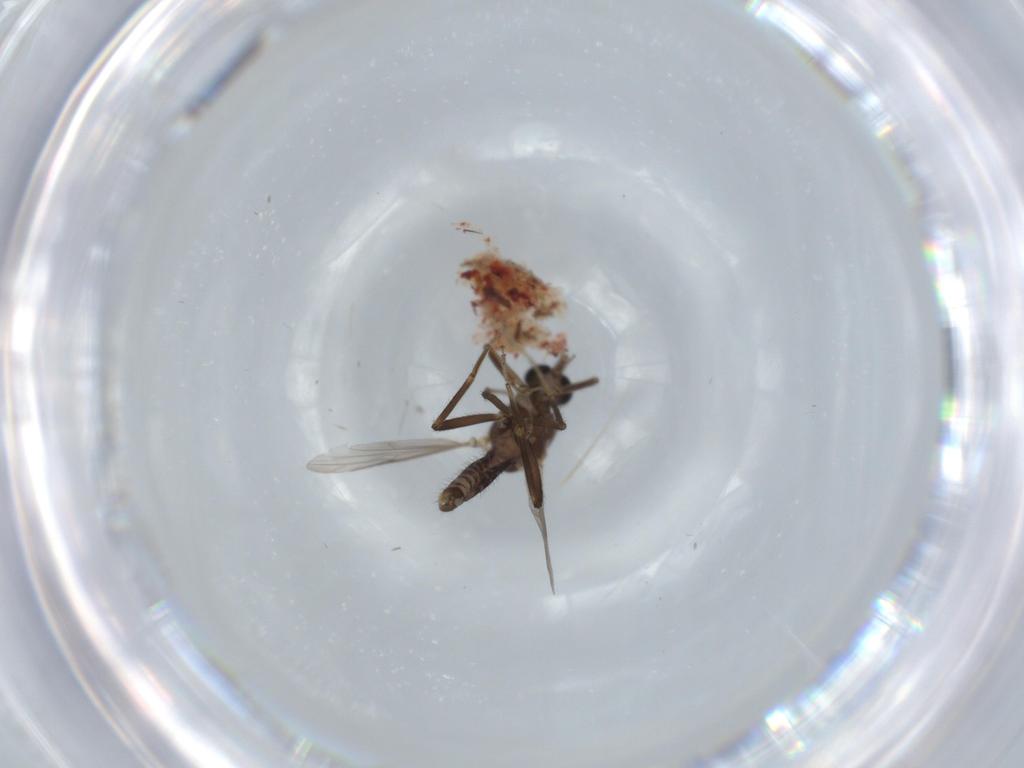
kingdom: Animalia
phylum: Arthropoda
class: Insecta
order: Diptera
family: Ceratopogonidae
